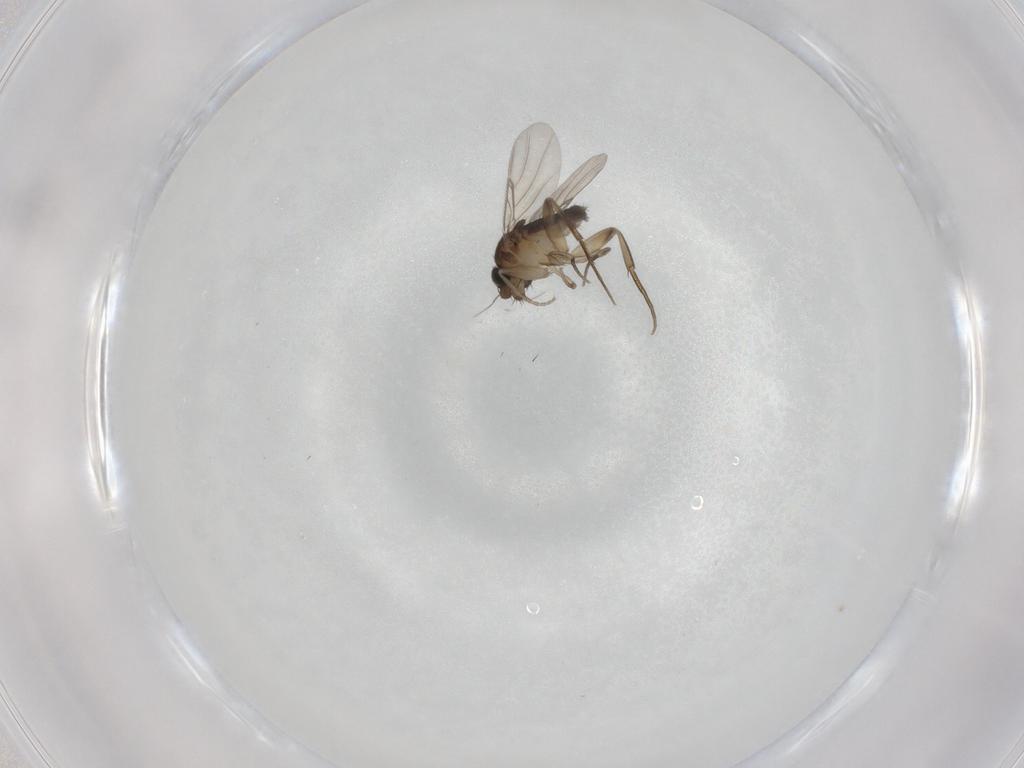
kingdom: Animalia
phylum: Arthropoda
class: Insecta
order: Diptera
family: Phoridae
